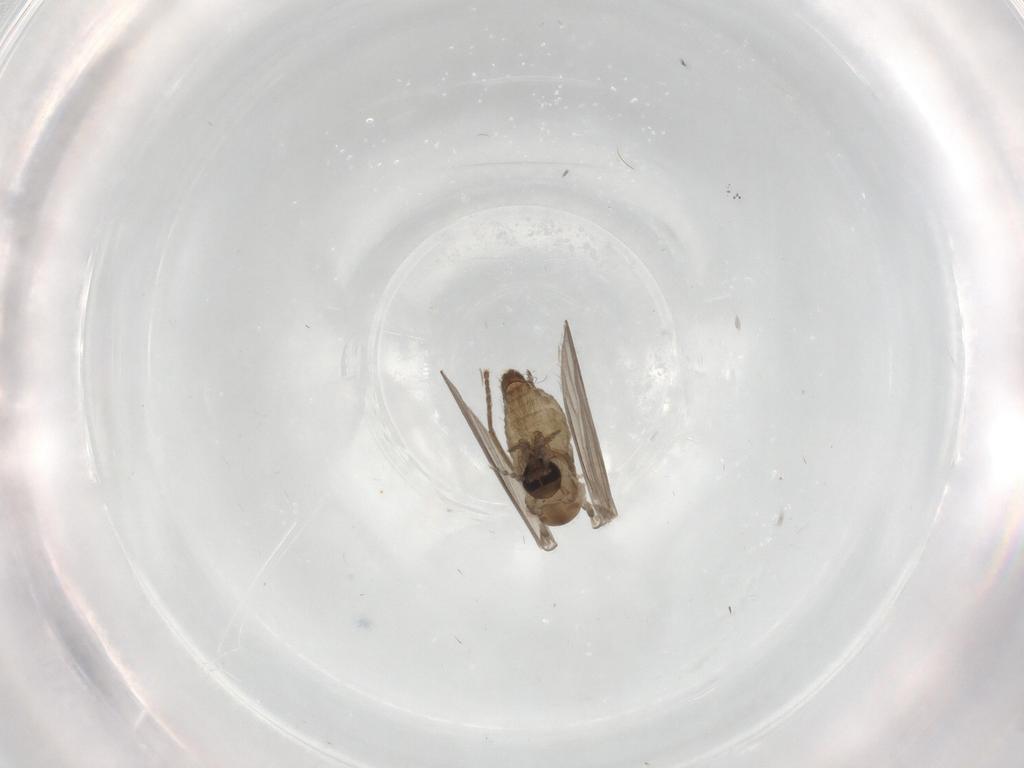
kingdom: Animalia
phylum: Arthropoda
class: Insecta
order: Diptera
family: Psychodidae
